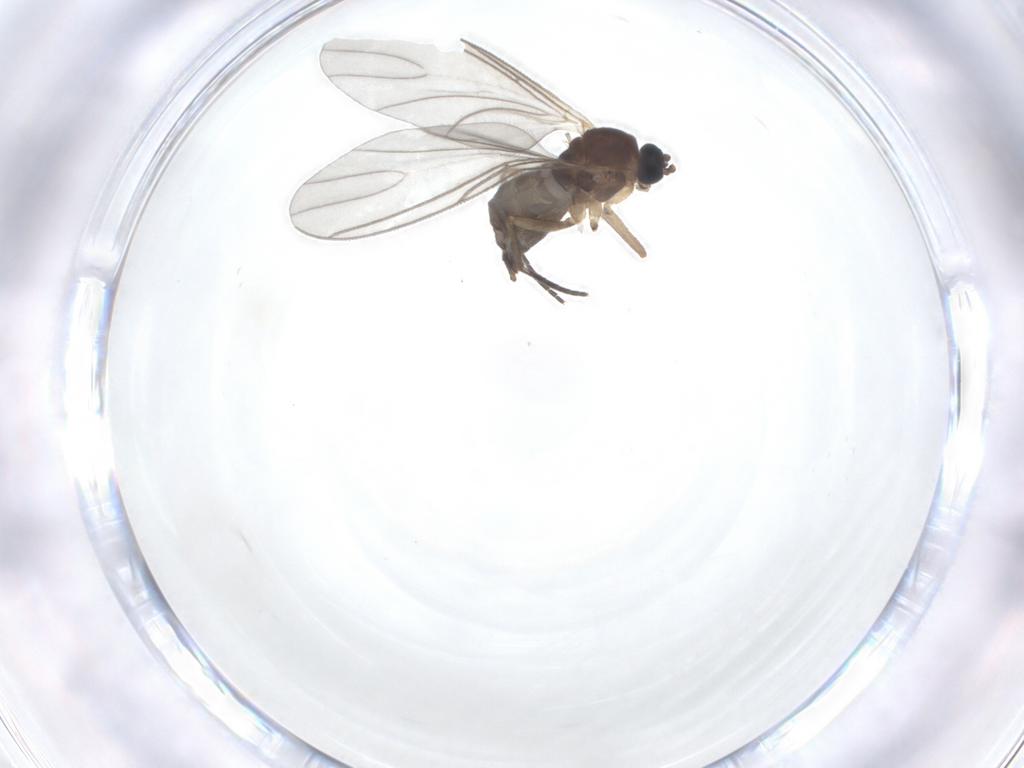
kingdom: Animalia
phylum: Arthropoda
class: Insecta
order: Diptera
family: Sciaridae
